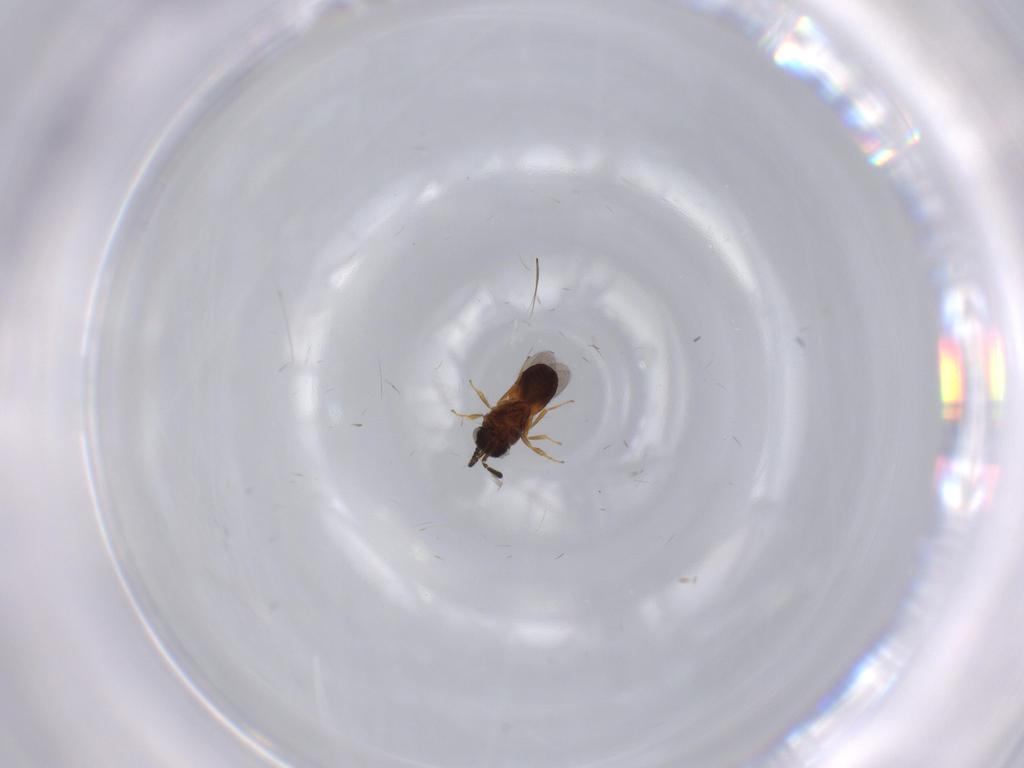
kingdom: Animalia
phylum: Arthropoda
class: Insecta
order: Hymenoptera
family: Scelionidae
